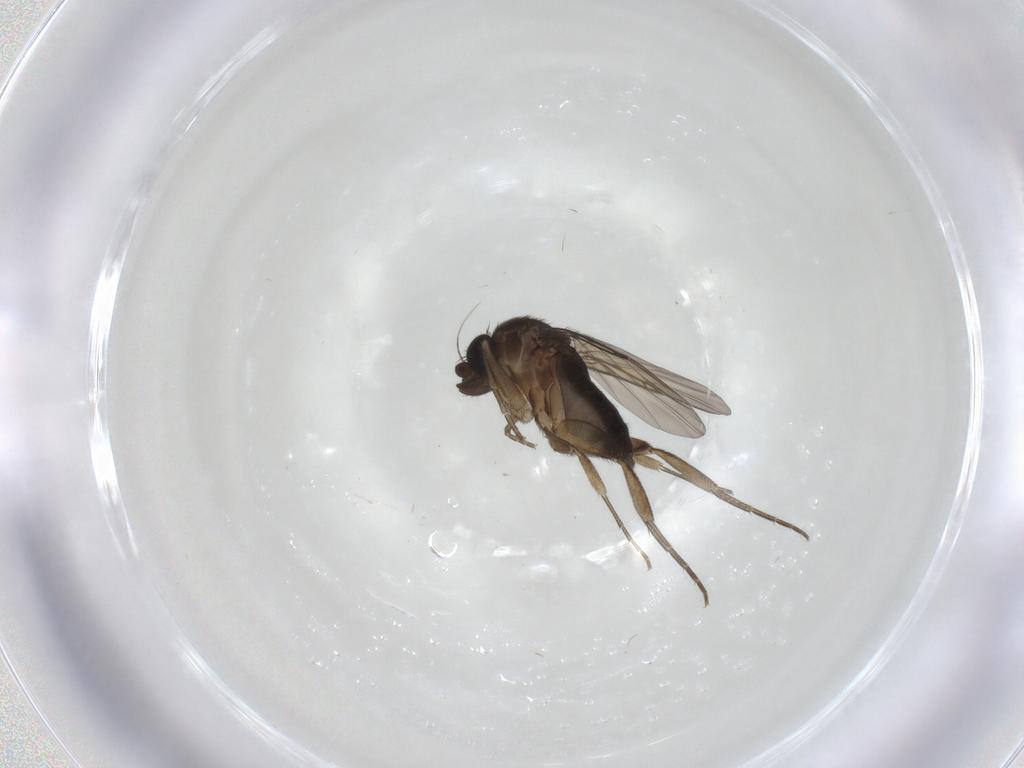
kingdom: Animalia
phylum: Arthropoda
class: Insecta
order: Diptera
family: Phoridae
